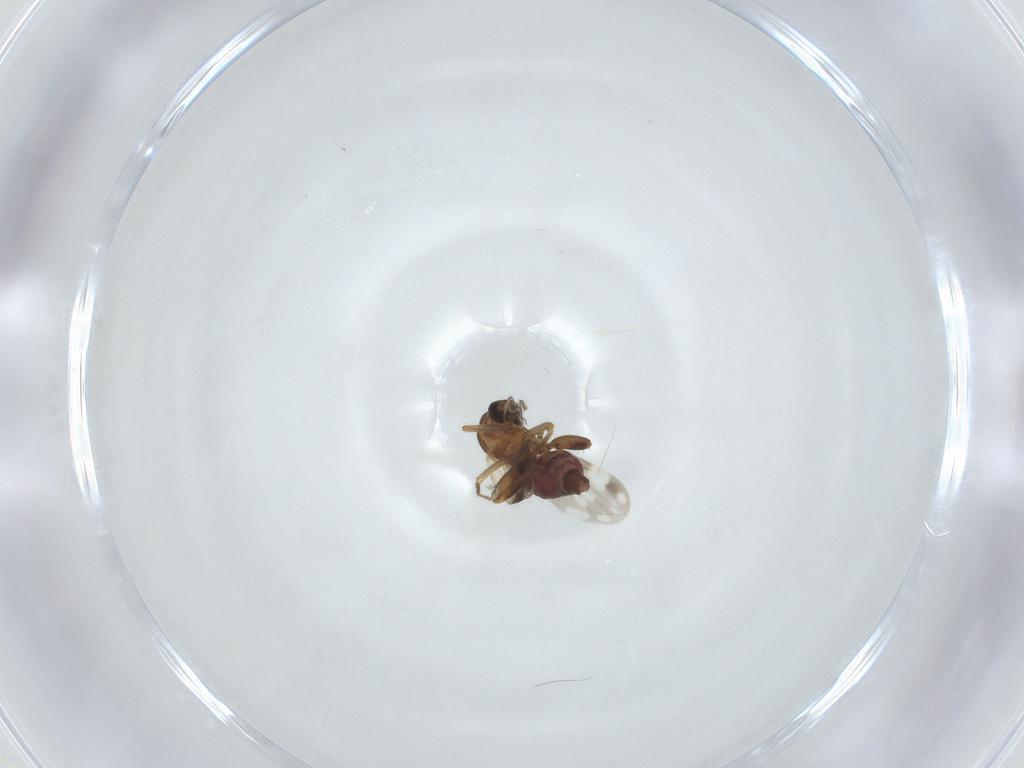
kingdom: Animalia
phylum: Arthropoda
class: Insecta
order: Diptera
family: Ceratopogonidae
